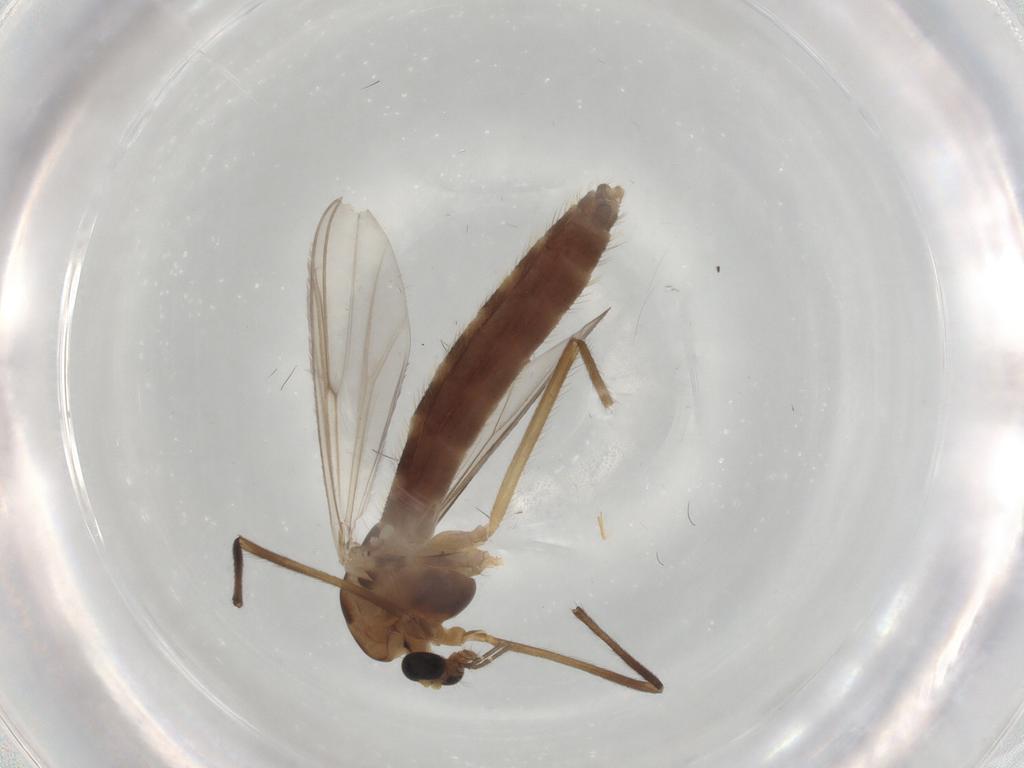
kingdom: Animalia
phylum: Arthropoda
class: Insecta
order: Diptera
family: Chironomidae
